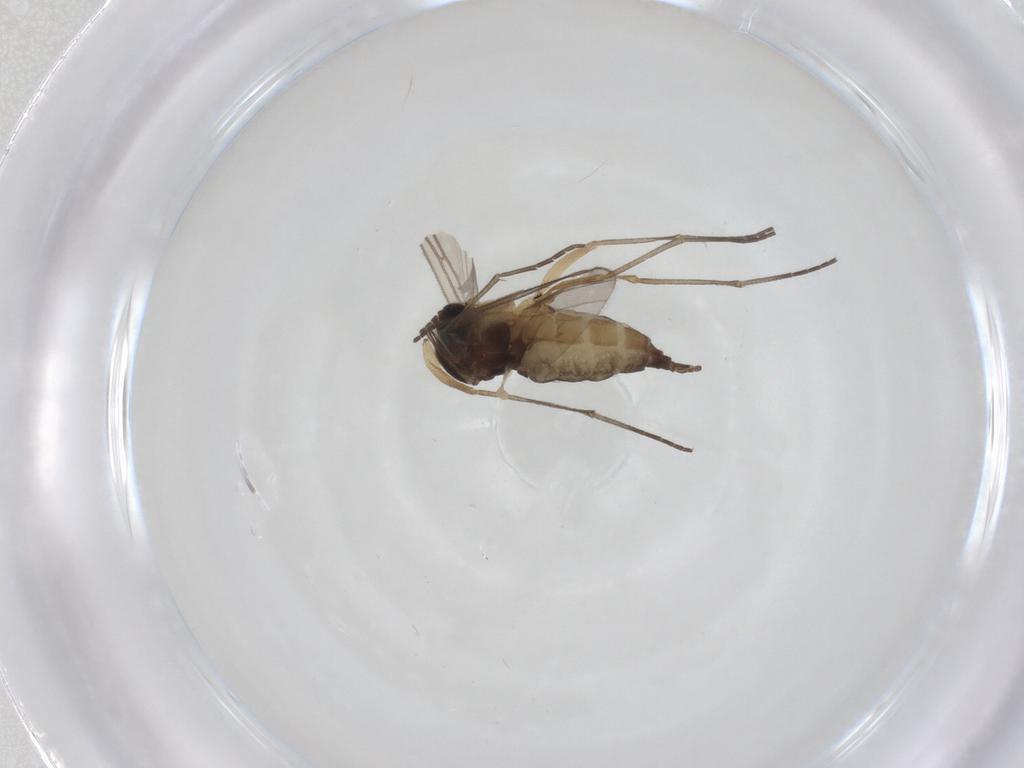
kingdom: Animalia
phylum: Arthropoda
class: Insecta
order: Diptera
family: Sciaridae
